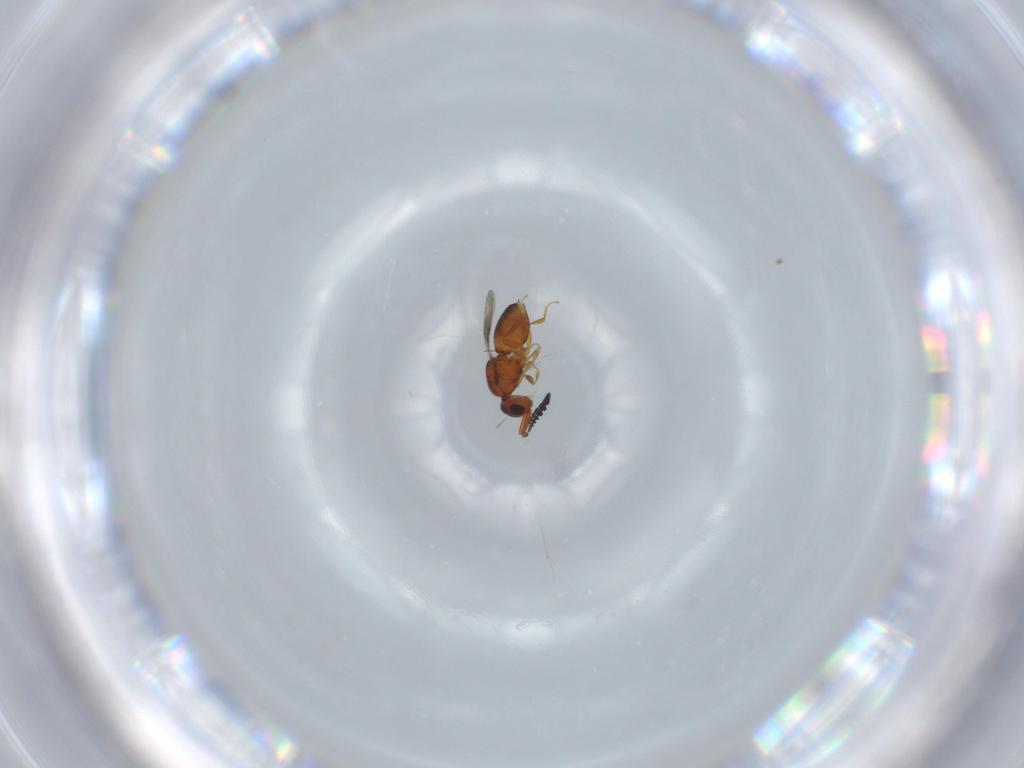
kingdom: Animalia
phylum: Arthropoda
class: Insecta
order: Hymenoptera
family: Ceraphronidae
